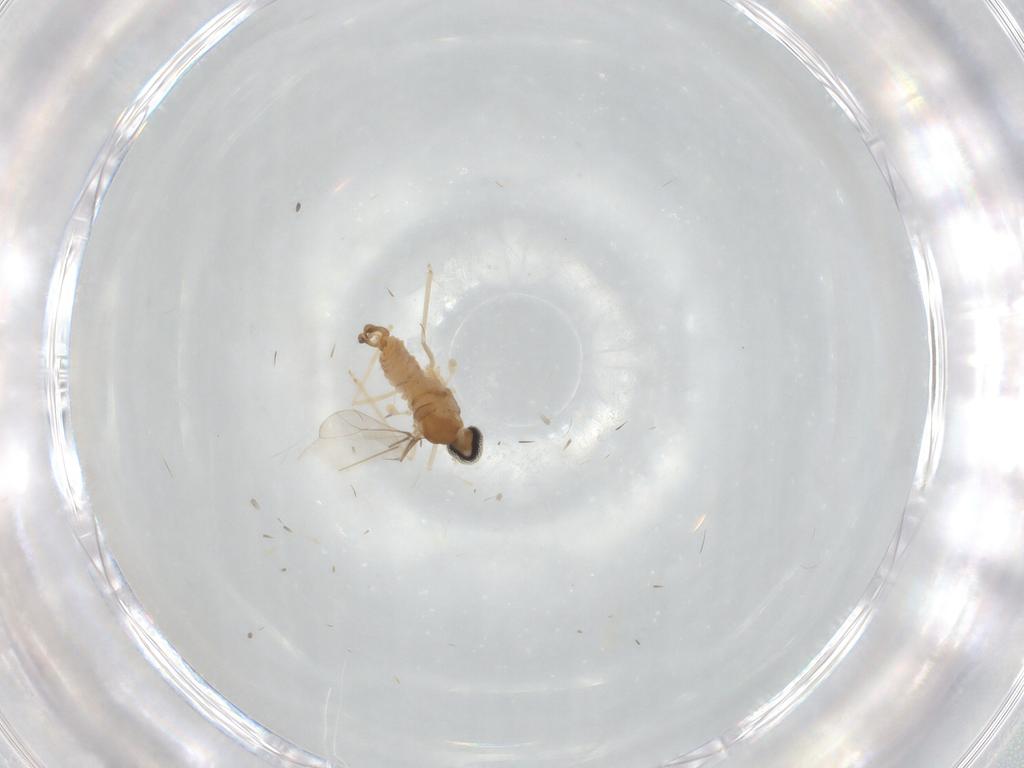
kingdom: Animalia
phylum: Arthropoda
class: Insecta
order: Diptera
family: Cecidomyiidae
